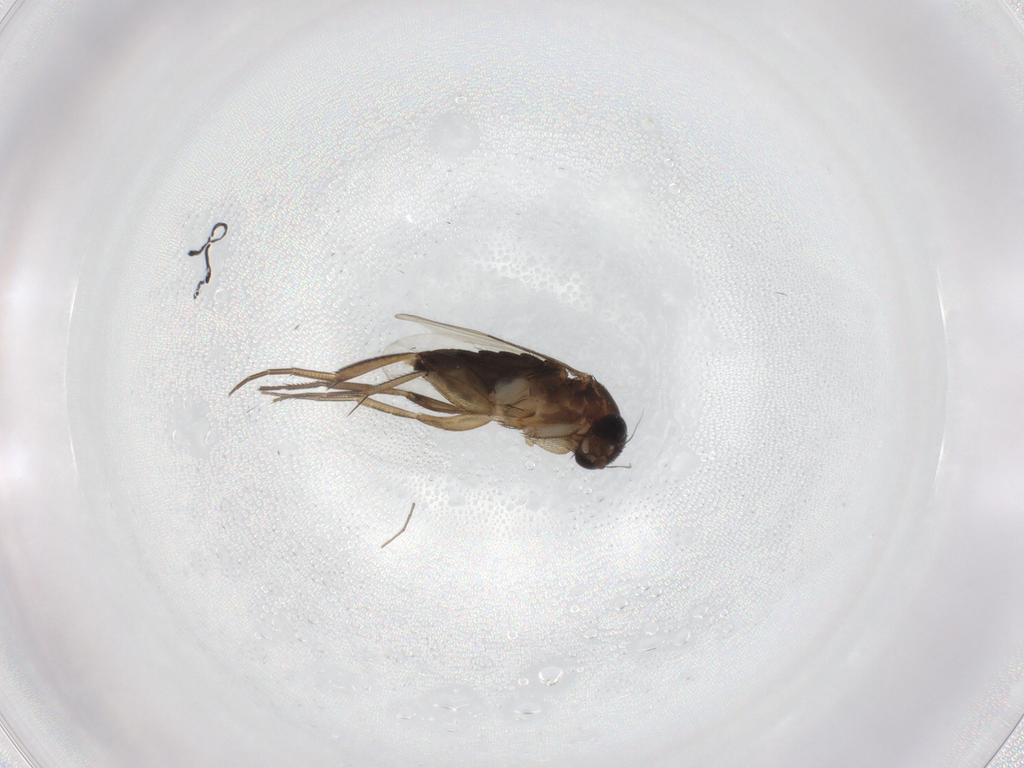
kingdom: Animalia
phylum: Arthropoda
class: Insecta
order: Diptera
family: Phoridae
